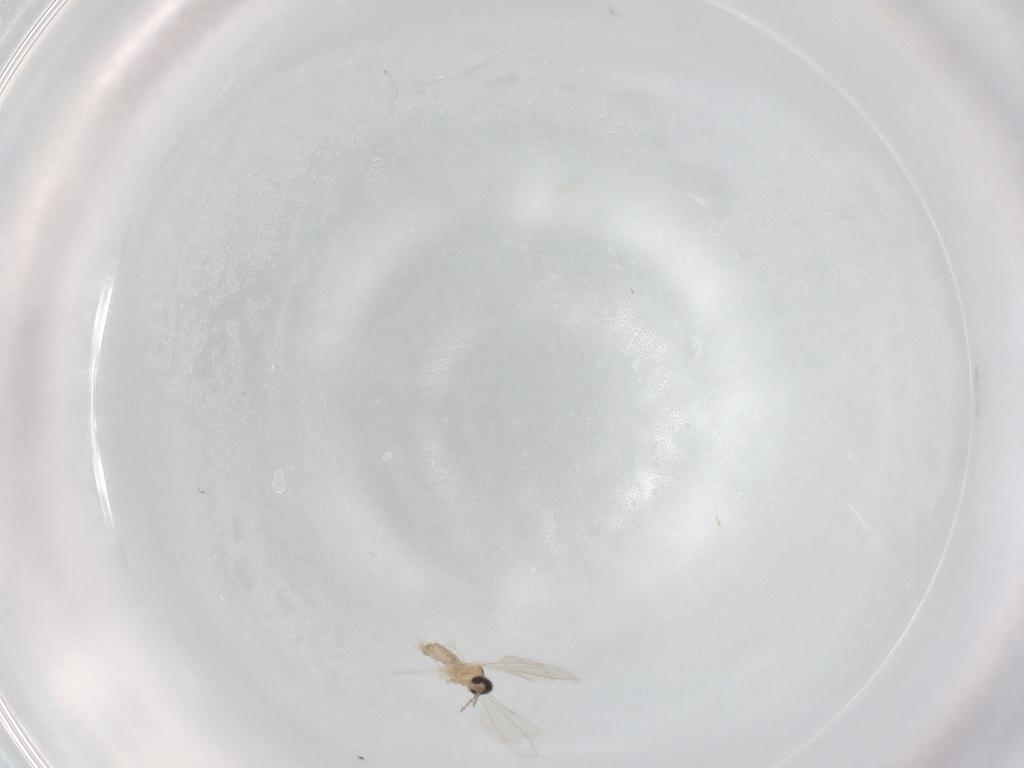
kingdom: Animalia
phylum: Arthropoda
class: Insecta
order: Diptera
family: Cecidomyiidae
